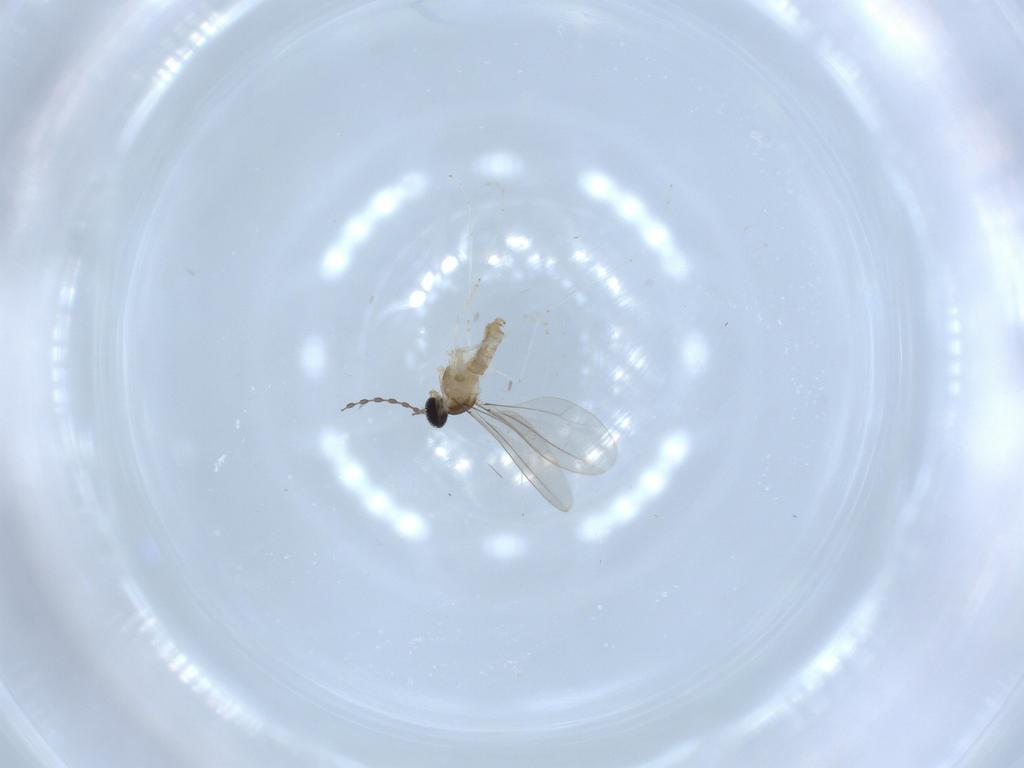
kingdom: Animalia
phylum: Arthropoda
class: Insecta
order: Diptera
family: Cecidomyiidae
